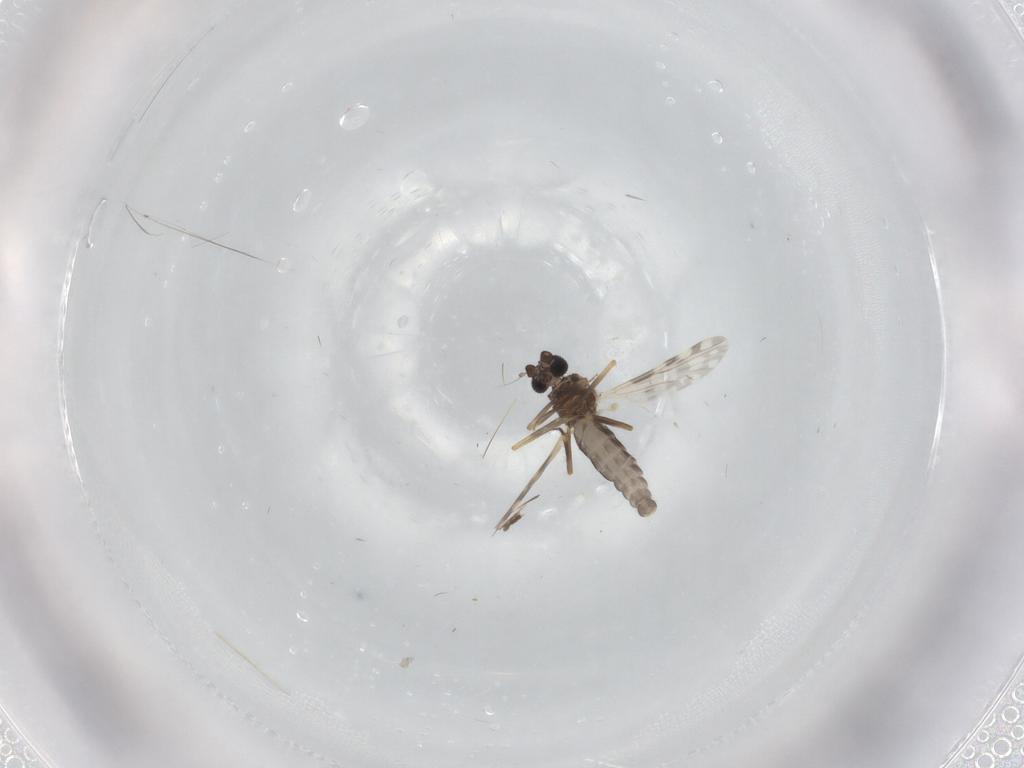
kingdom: Animalia
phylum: Arthropoda
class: Insecta
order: Diptera
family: Ceratopogonidae
